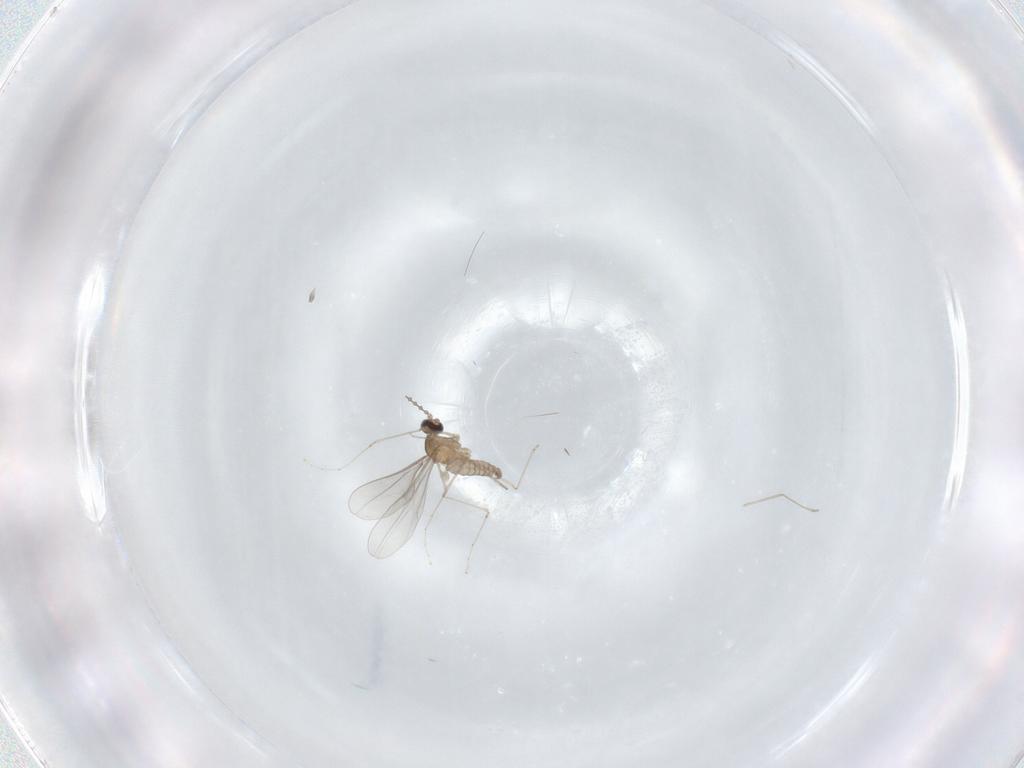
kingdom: Animalia
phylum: Arthropoda
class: Insecta
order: Diptera
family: Cecidomyiidae
